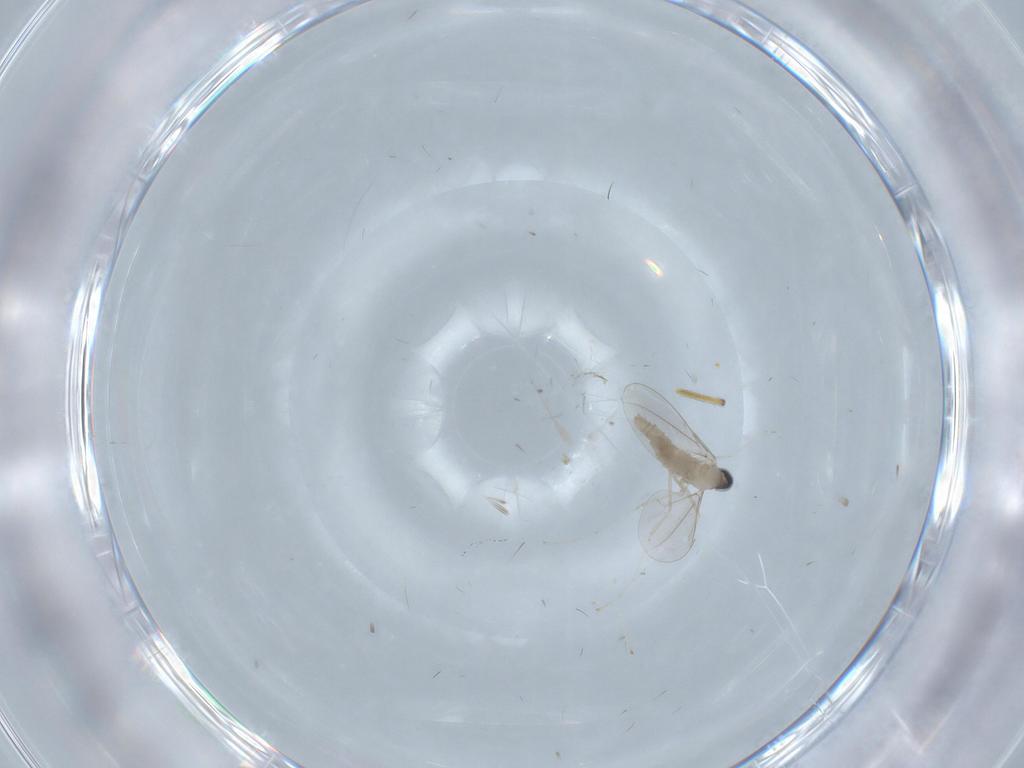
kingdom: Animalia
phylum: Arthropoda
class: Insecta
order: Diptera
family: Cecidomyiidae
